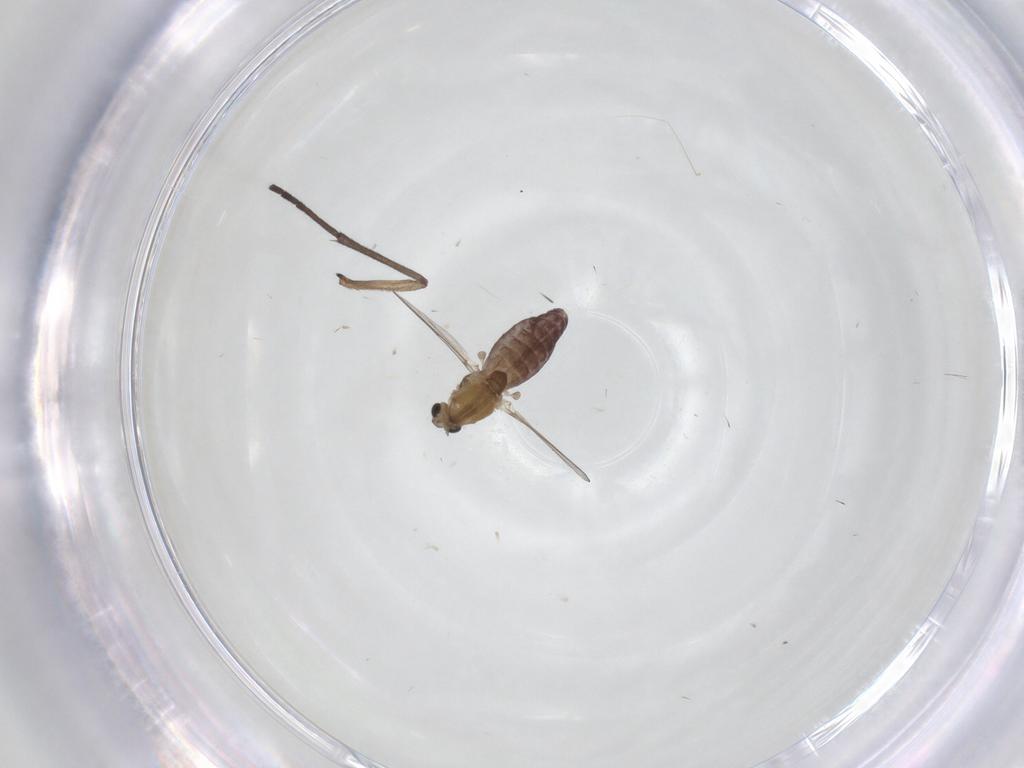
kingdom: Animalia
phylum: Arthropoda
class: Insecta
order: Diptera
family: Chironomidae
